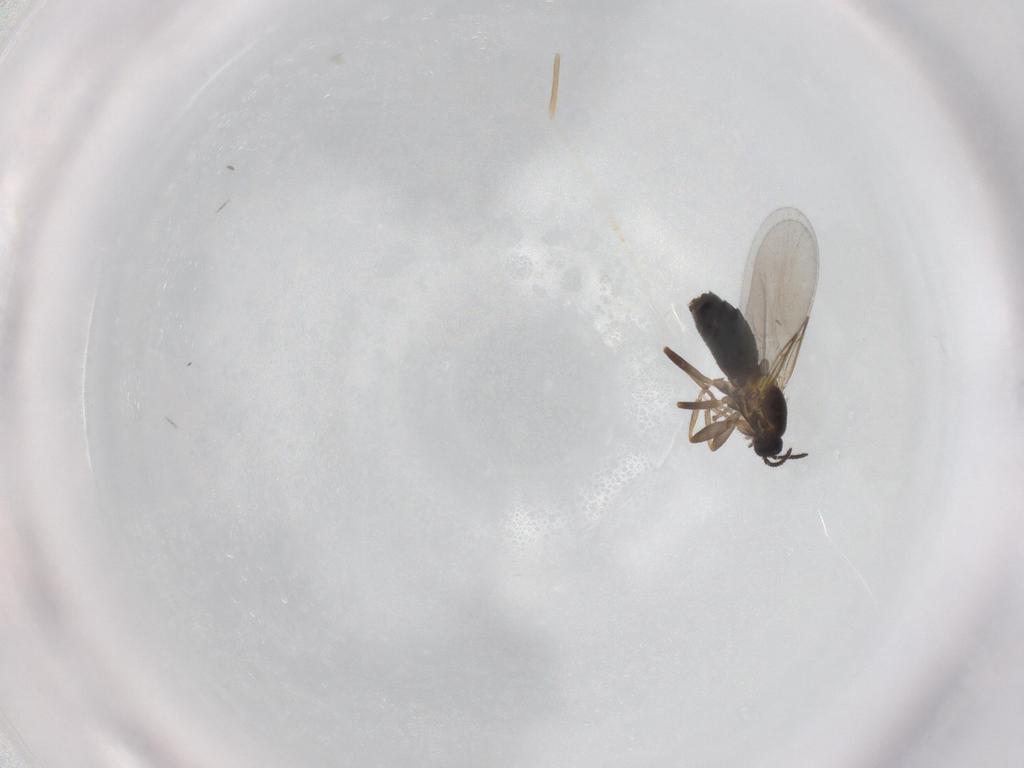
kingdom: Animalia
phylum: Arthropoda
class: Insecta
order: Diptera
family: Scatopsidae
